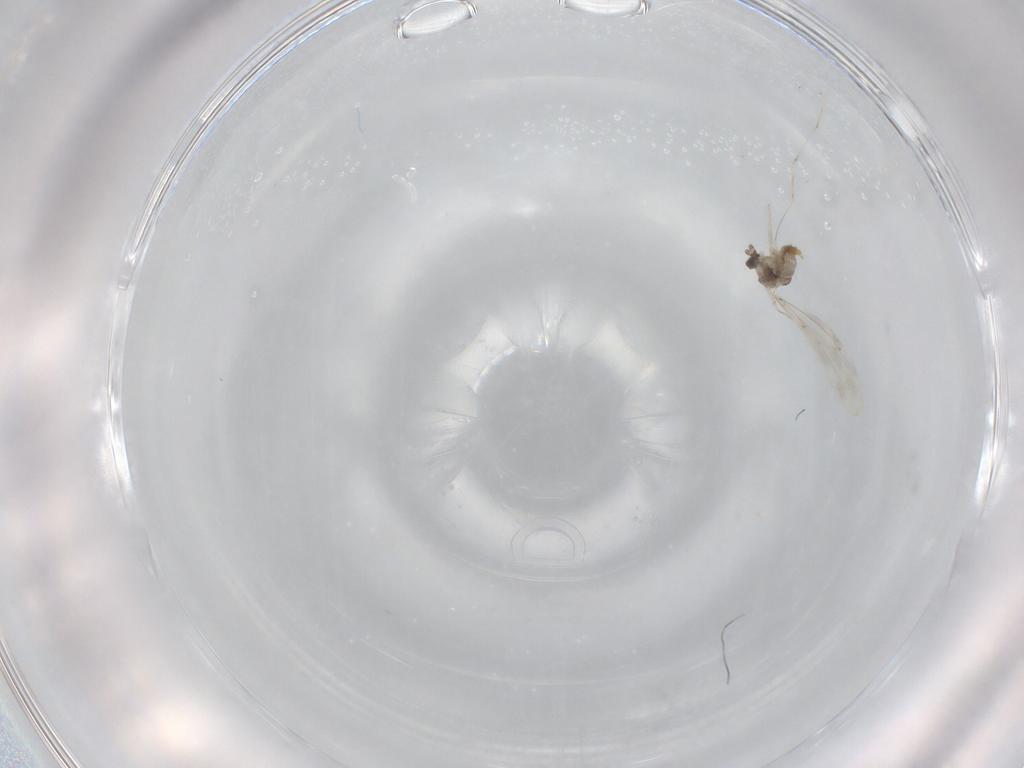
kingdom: Animalia
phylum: Arthropoda
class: Insecta
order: Diptera
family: Cecidomyiidae
